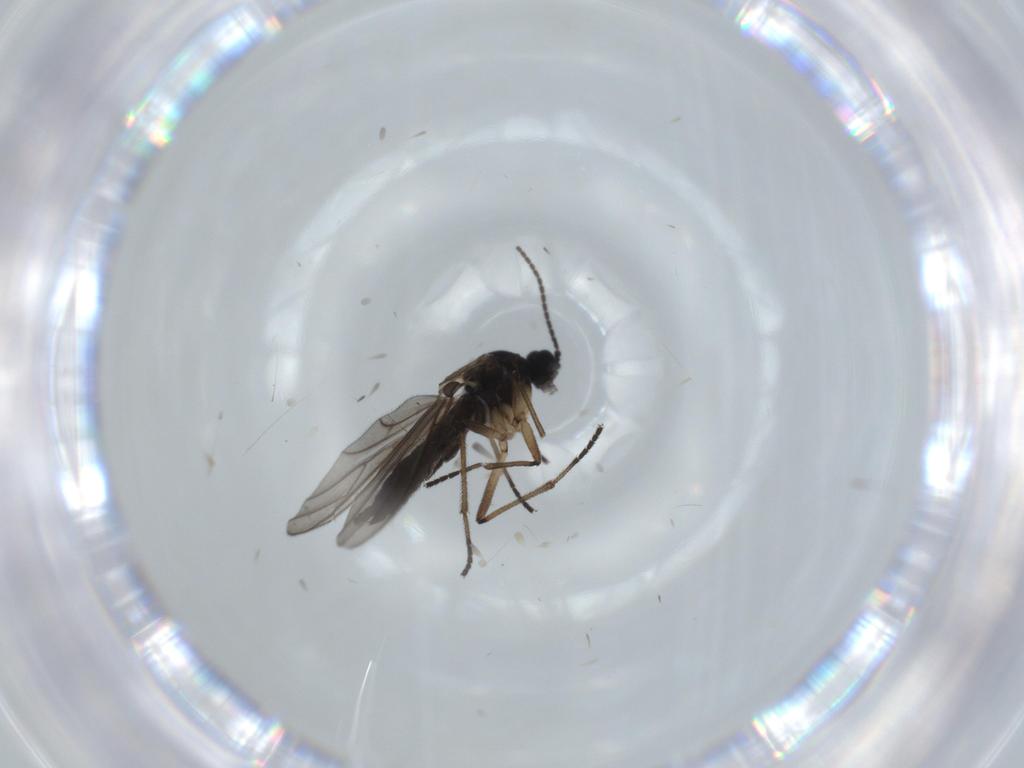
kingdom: Animalia
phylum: Arthropoda
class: Insecta
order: Diptera
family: Sciaridae
